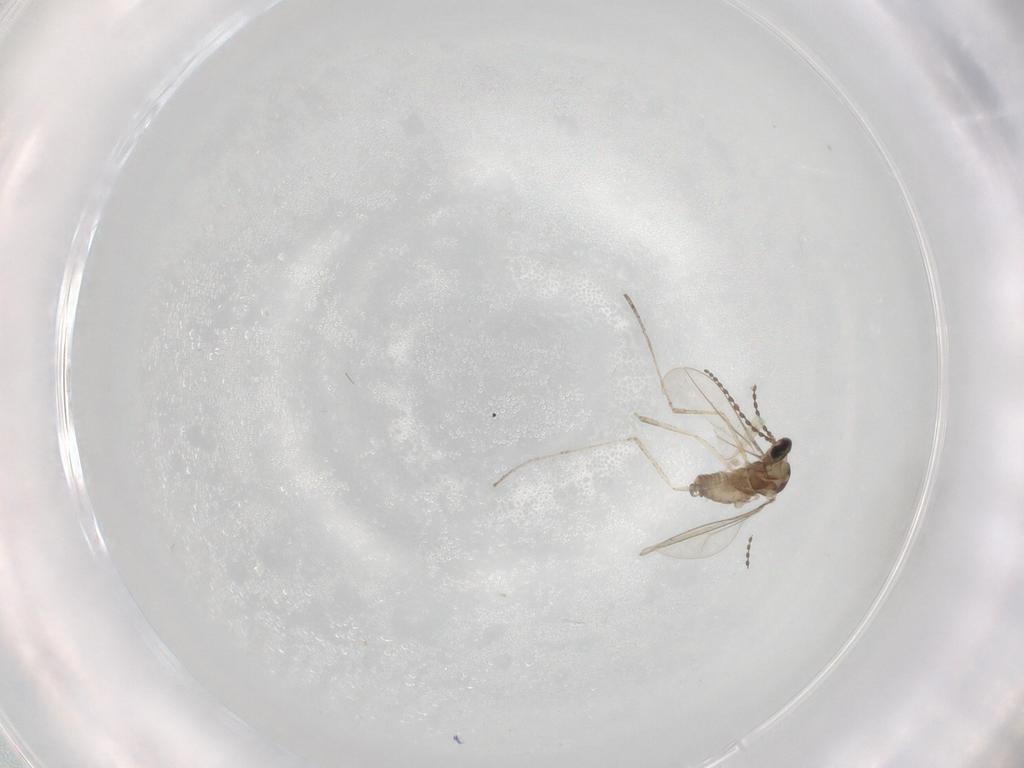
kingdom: Animalia
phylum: Arthropoda
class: Insecta
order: Diptera
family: Cecidomyiidae
